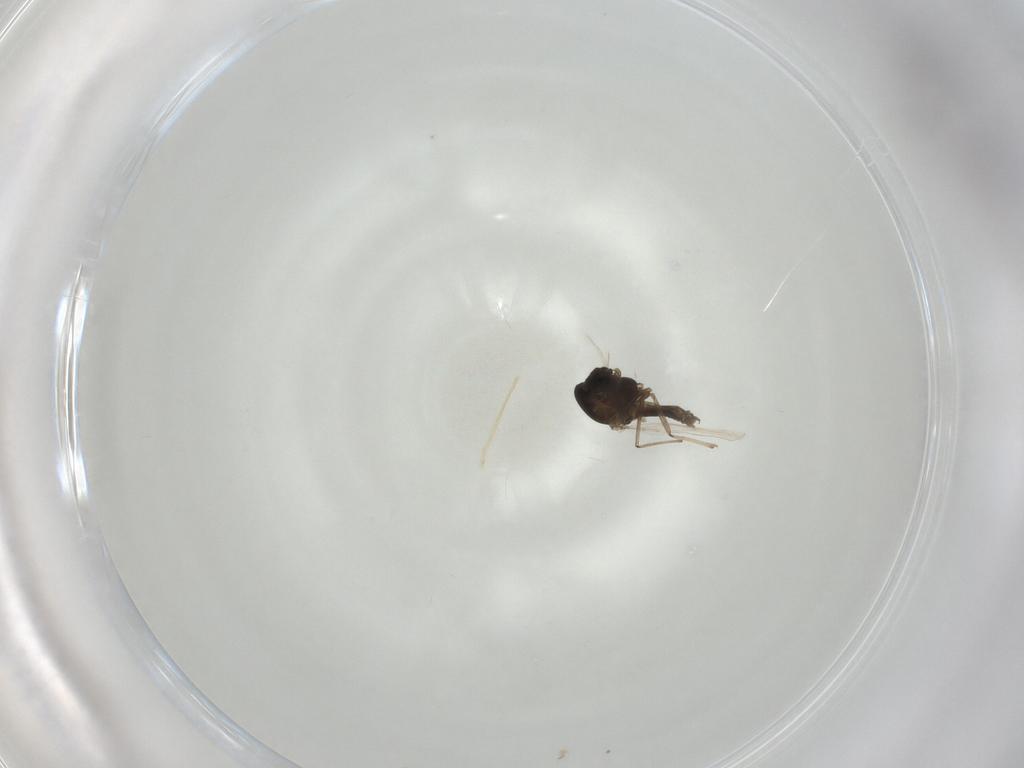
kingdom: Animalia
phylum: Arthropoda
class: Insecta
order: Diptera
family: Chironomidae
